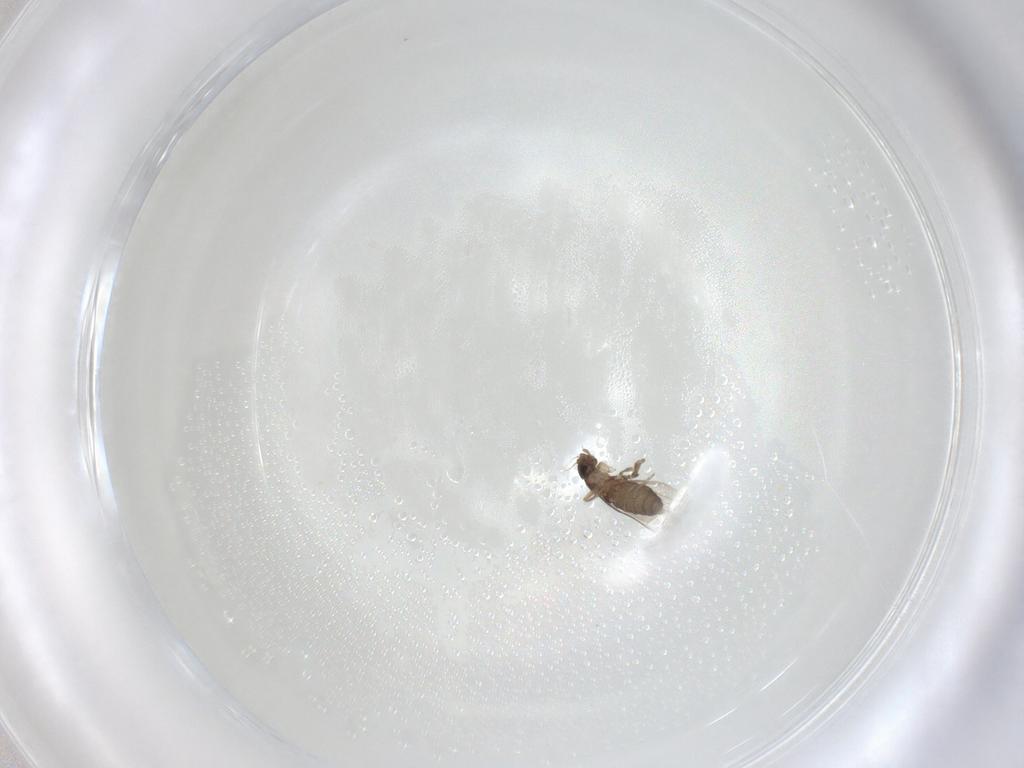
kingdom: Animalia
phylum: Arthropoda
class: Insecta
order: Diptera
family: Phoridae
